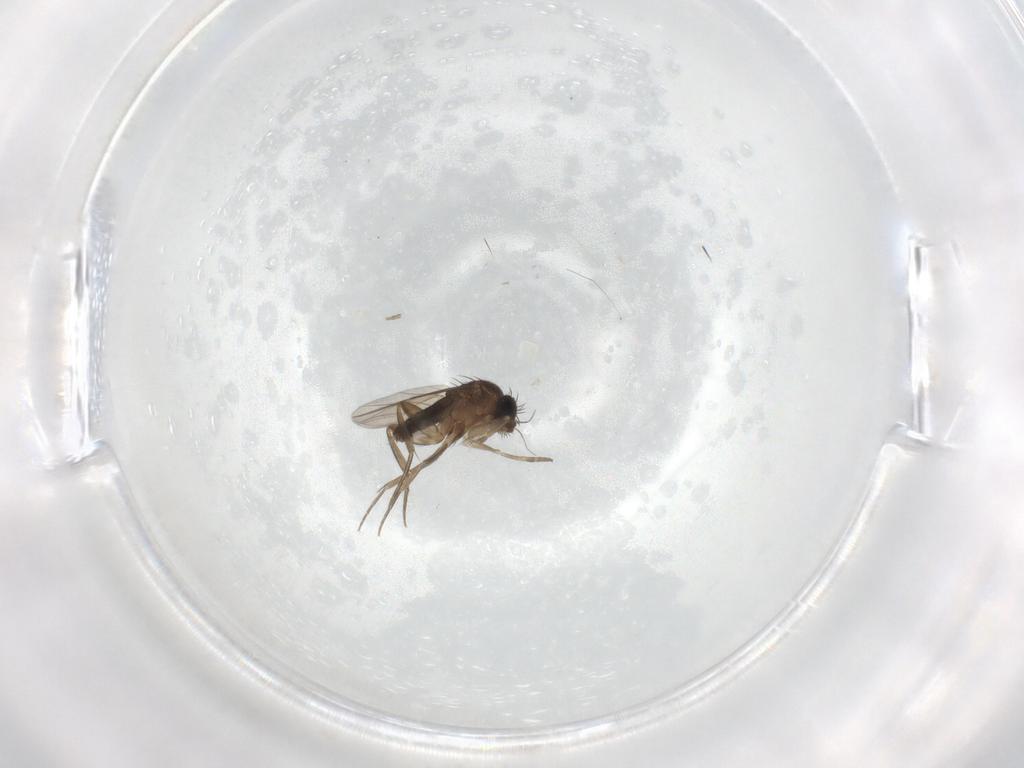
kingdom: Animalia
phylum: Arthropoda
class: Insecta
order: Diptera
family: Phoridae
